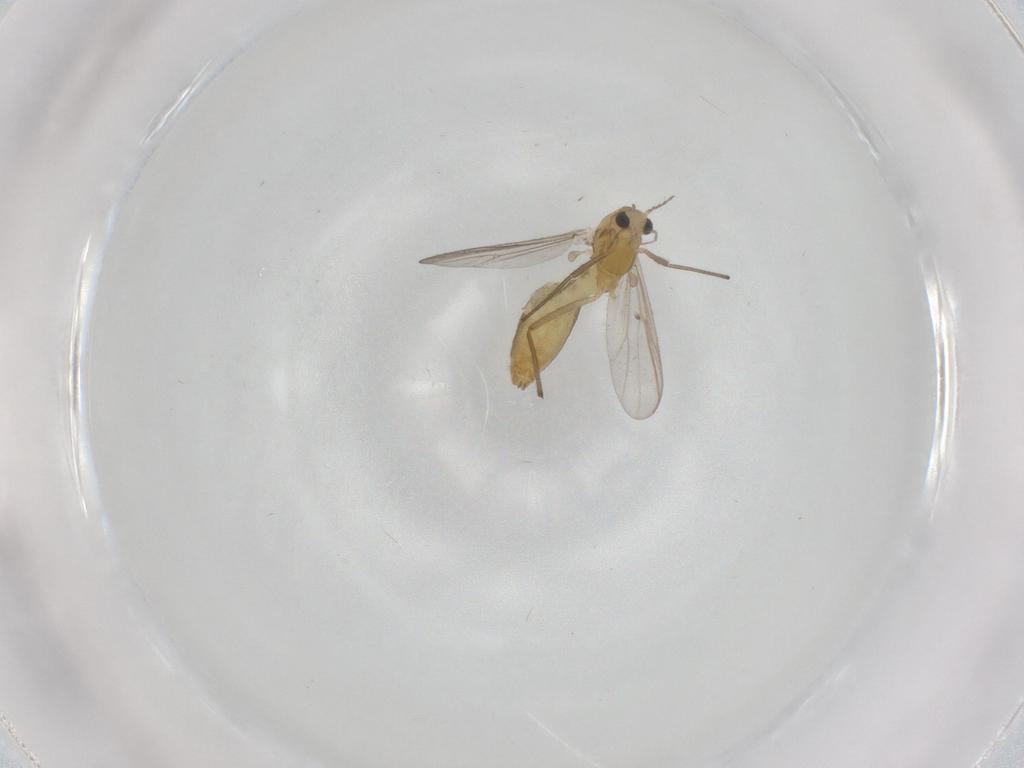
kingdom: Animalia
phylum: Arthropoda
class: Insecta
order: Diptera
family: Chironomidae
